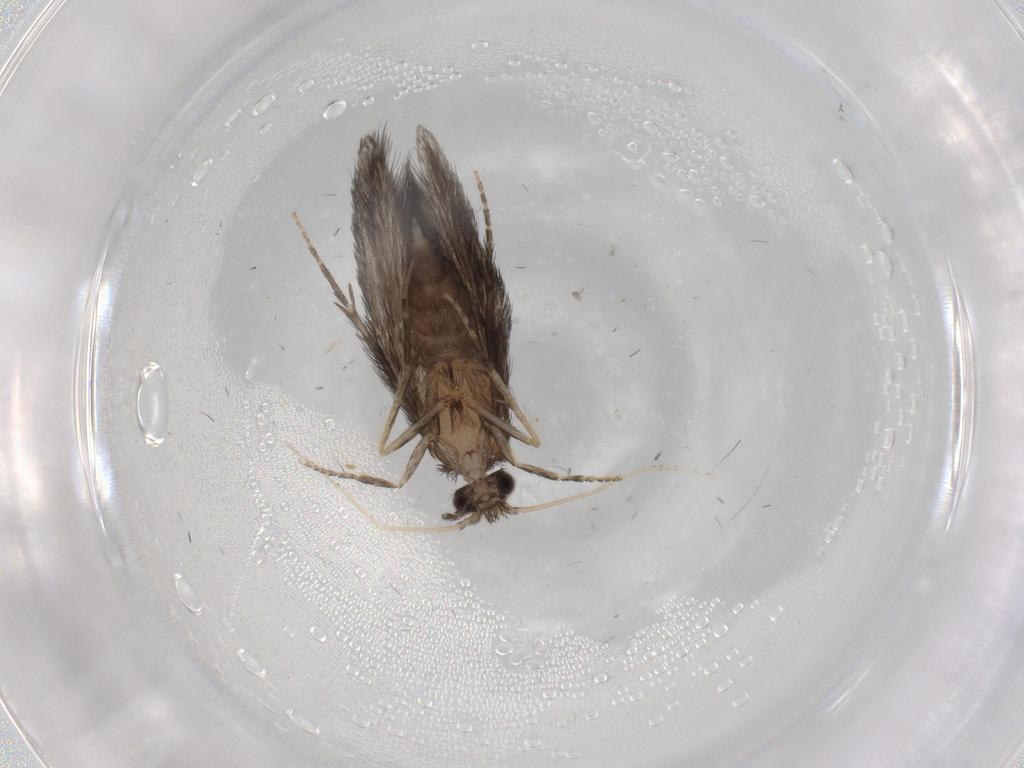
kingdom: Animalia
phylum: Arthropoda
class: Insecta
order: Trichoptera
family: Hydroptilidae
